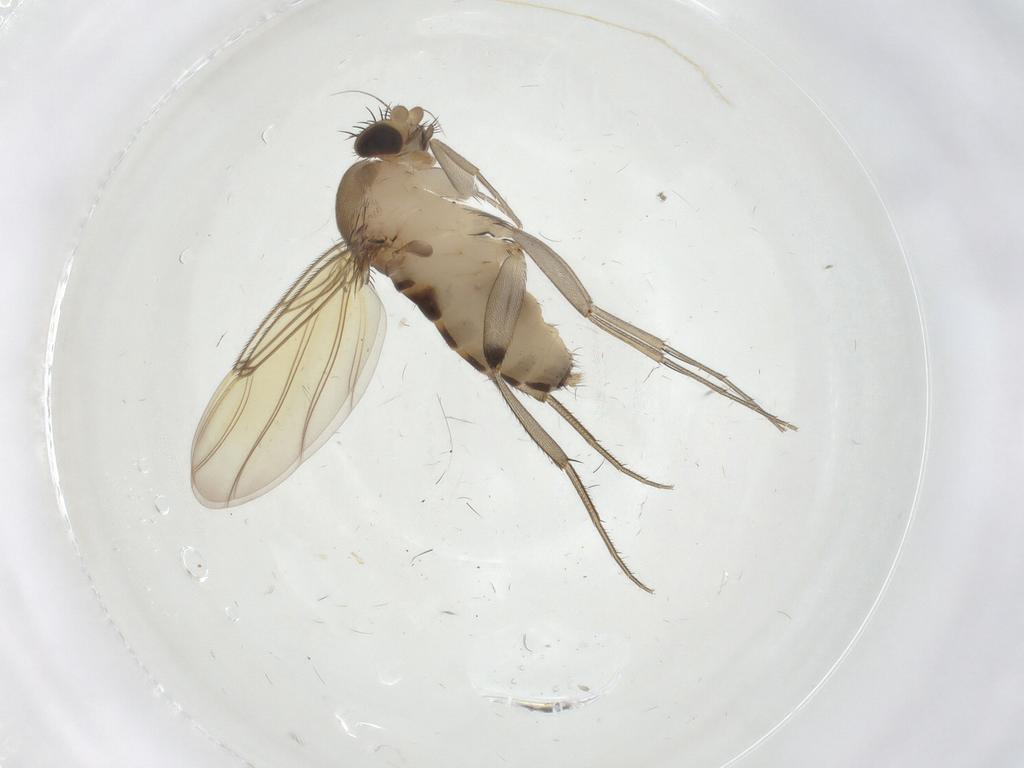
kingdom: Animalia
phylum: Arthropoda
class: Insecta
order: Diptera
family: Phoridae
